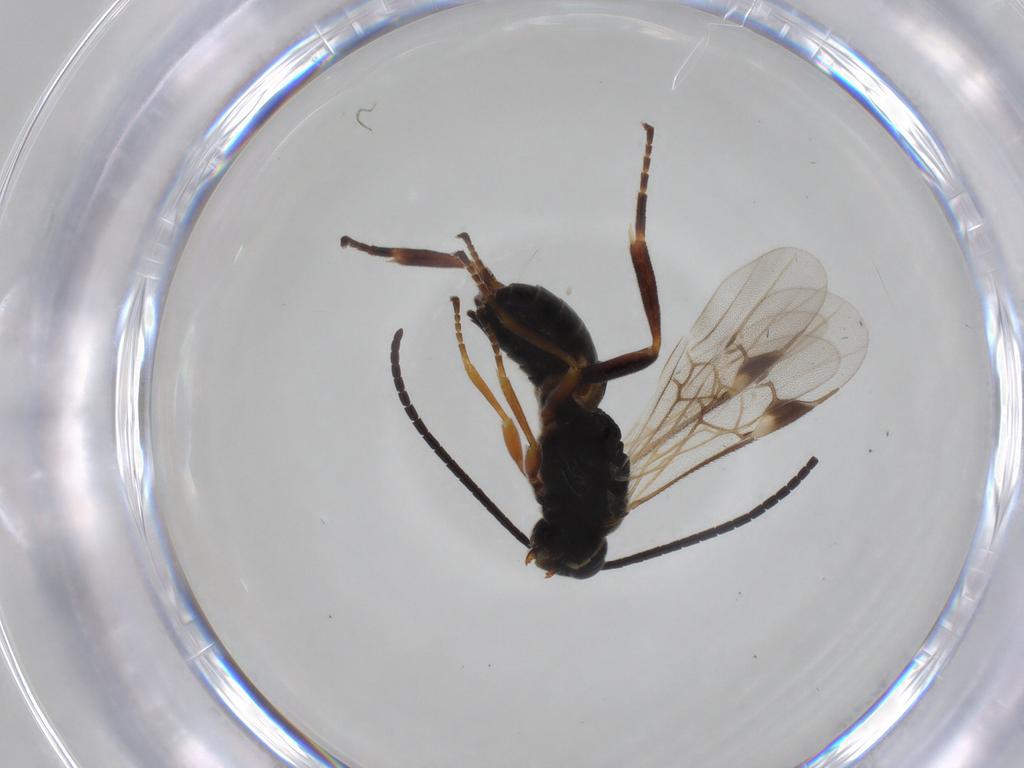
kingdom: Animalia
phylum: Arthropoda
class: Insecta
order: Hymenoptera
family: Braconidae
